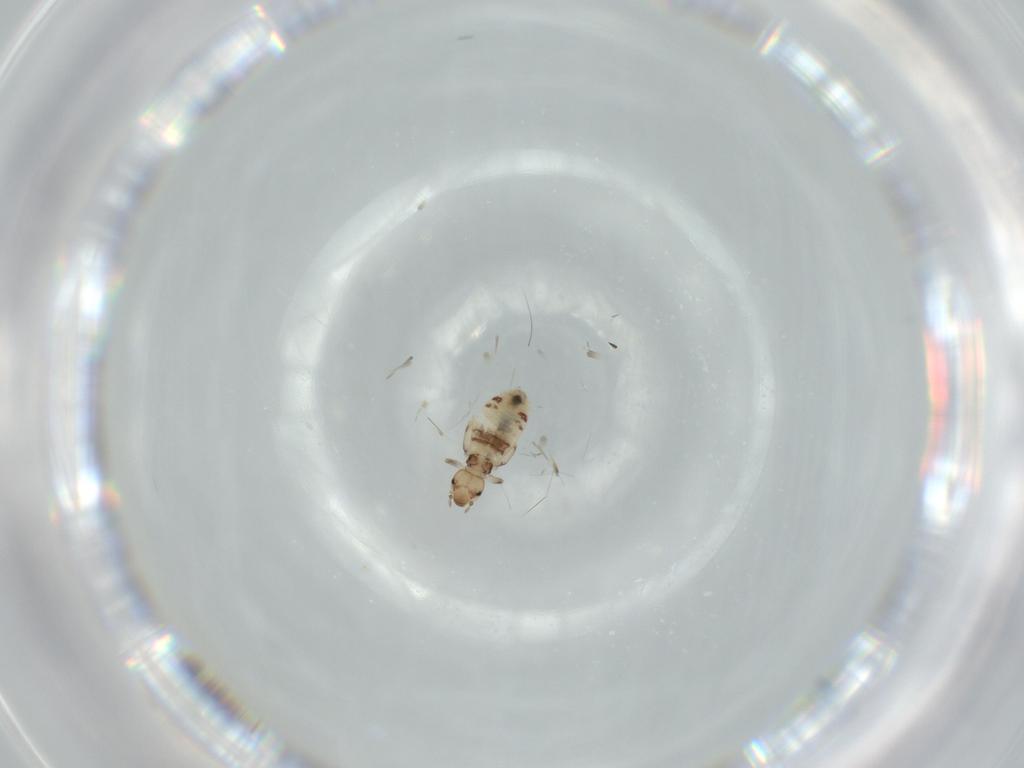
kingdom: Animalia
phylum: Arthropoda
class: Insecta
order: Psocodea
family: Liposcelididae
